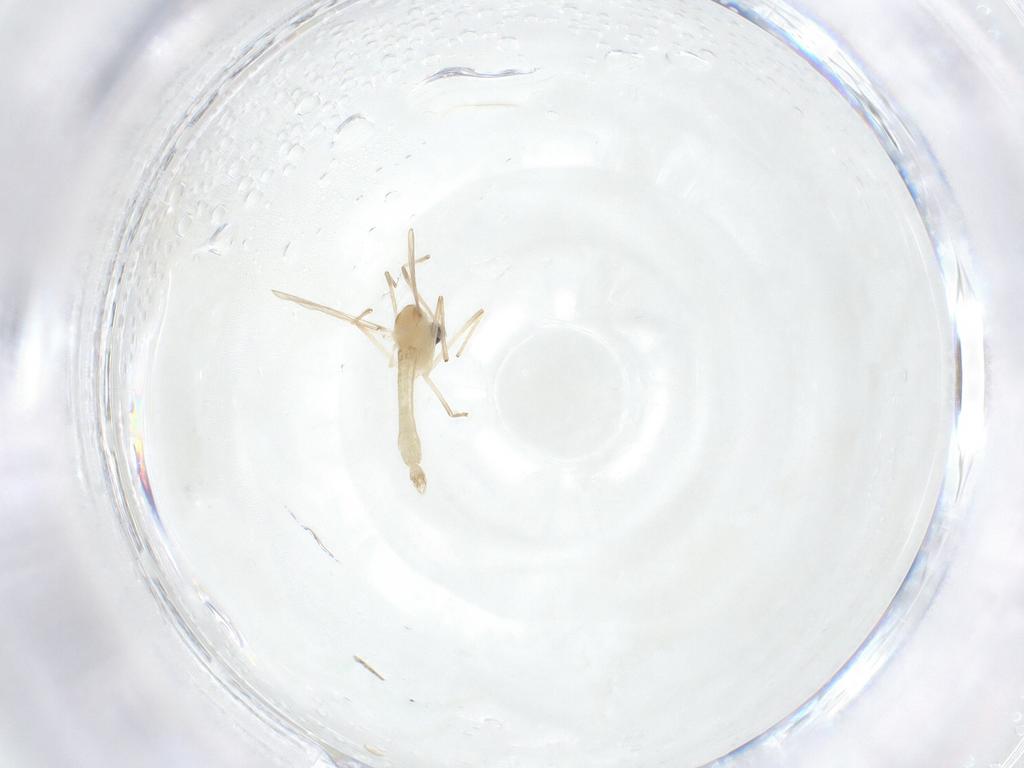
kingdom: Animalia
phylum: Arthropoda
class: Insecta
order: Diptera
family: Chironomidae
